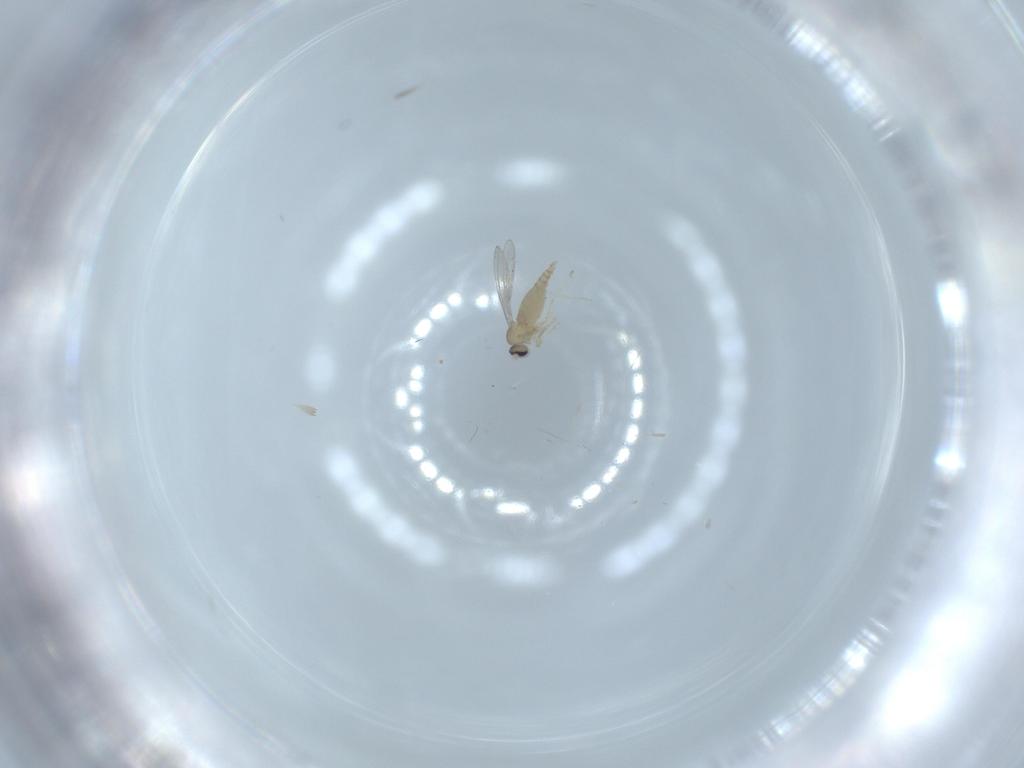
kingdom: Animalia
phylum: Arthropoda
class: Insecta
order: Diptera
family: Cecidomyiidae
